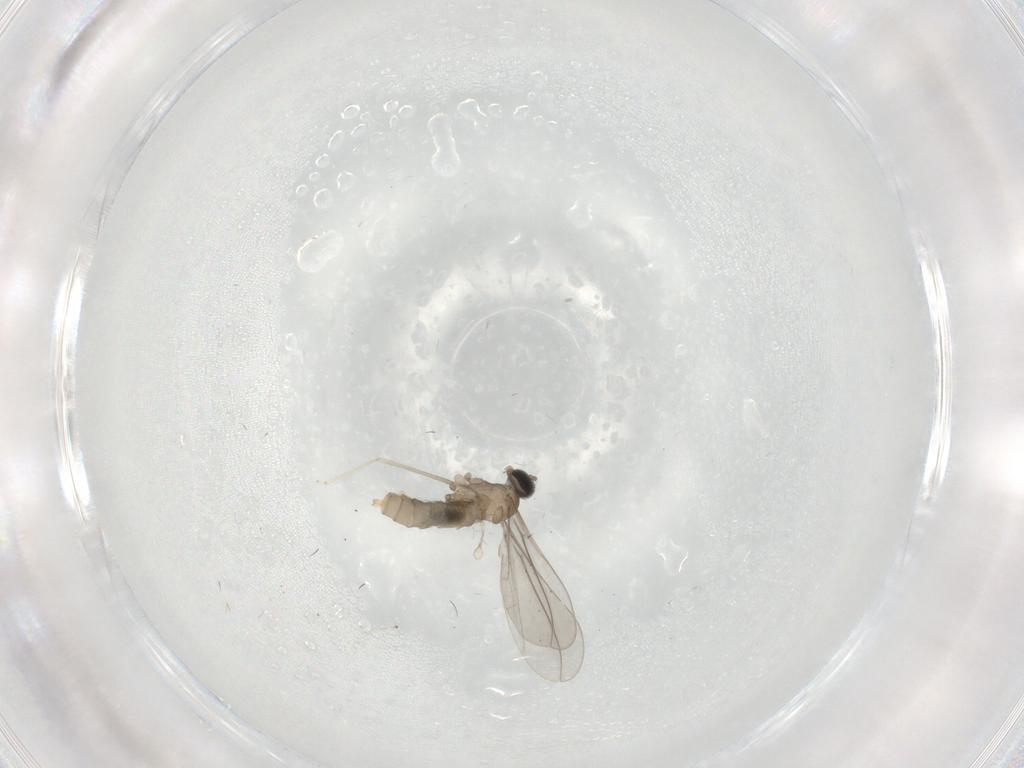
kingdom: Animalia
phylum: Arthropoda
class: Insecta
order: Diptera
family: Cecidomyiidae
